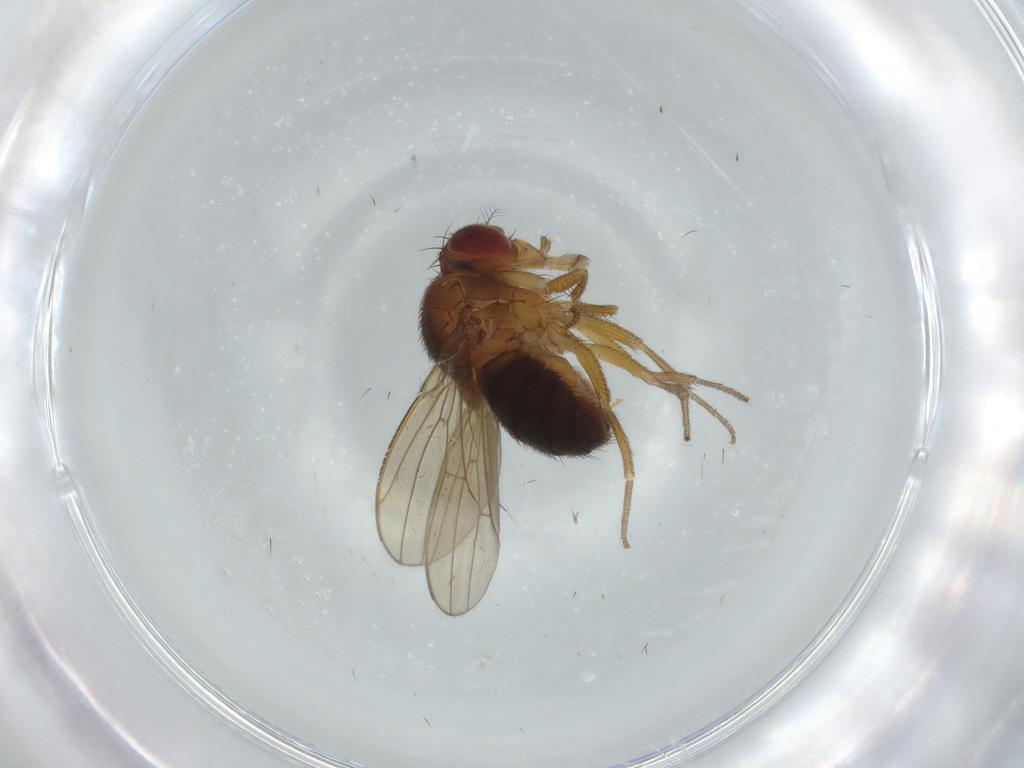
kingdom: Animalia
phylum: Arthropoda
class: Insecta
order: Diptera
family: Drosophilidae
